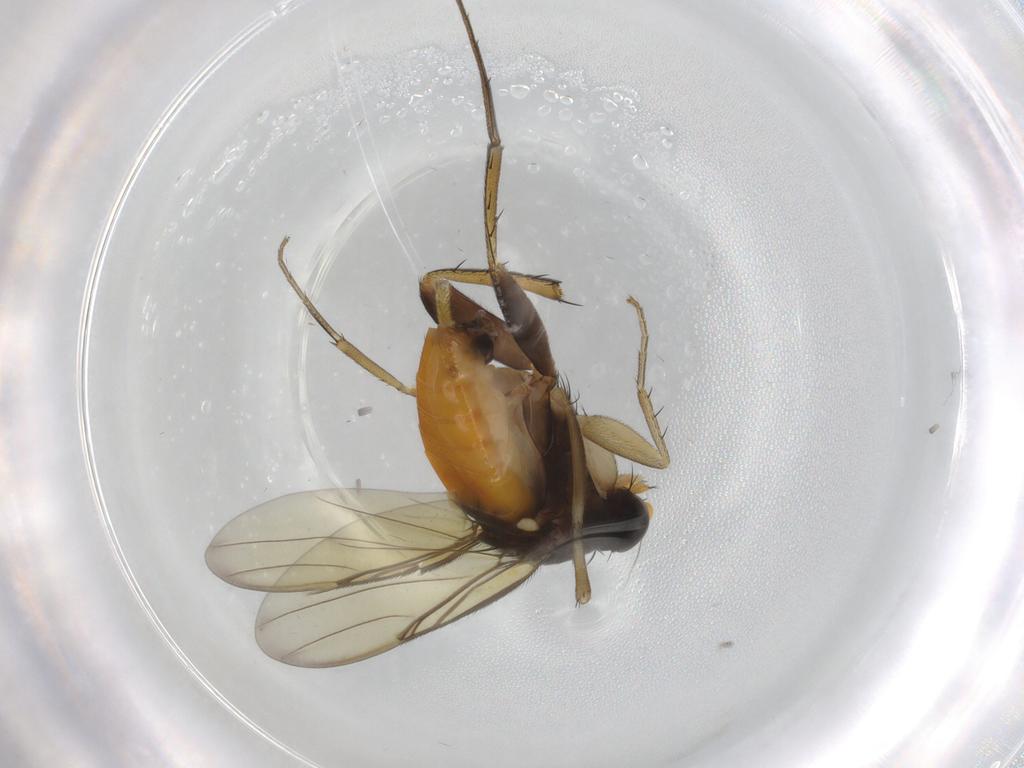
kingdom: Animalia
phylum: Arthropoda
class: Insecta
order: Diptera
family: Phoridae
